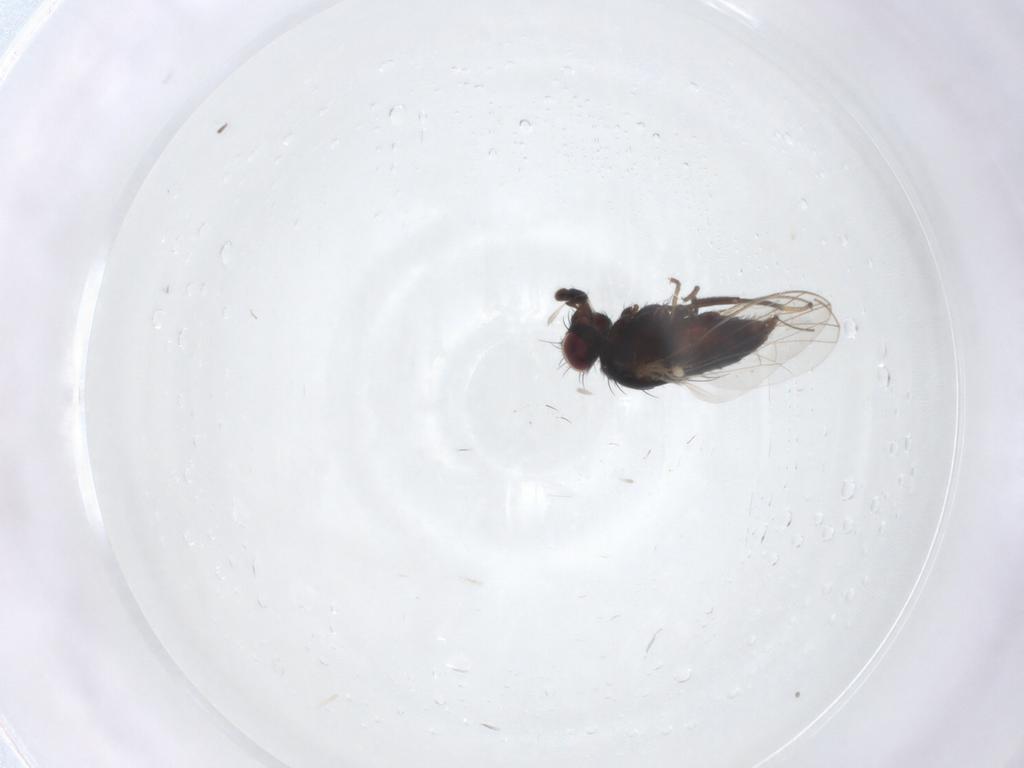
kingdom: Animalia
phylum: Arthropoda
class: Insecta
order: Diptera
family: Carnidae
